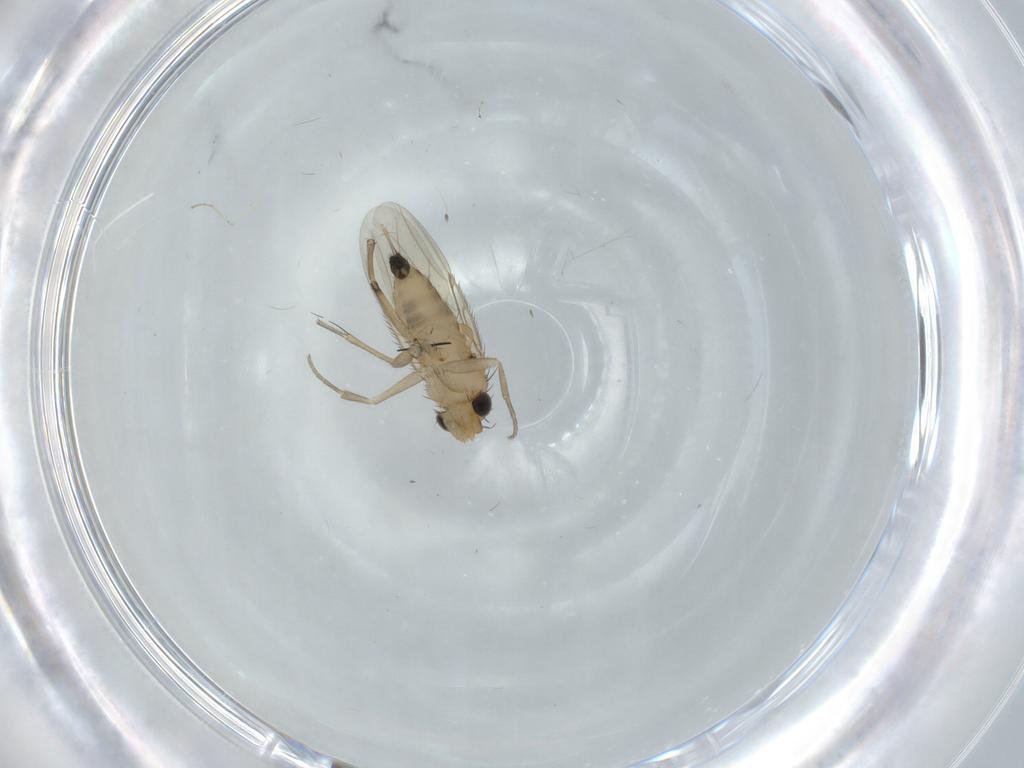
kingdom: Animalia
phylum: Arthropoda
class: Insecta
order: Diptera
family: Phoridae
